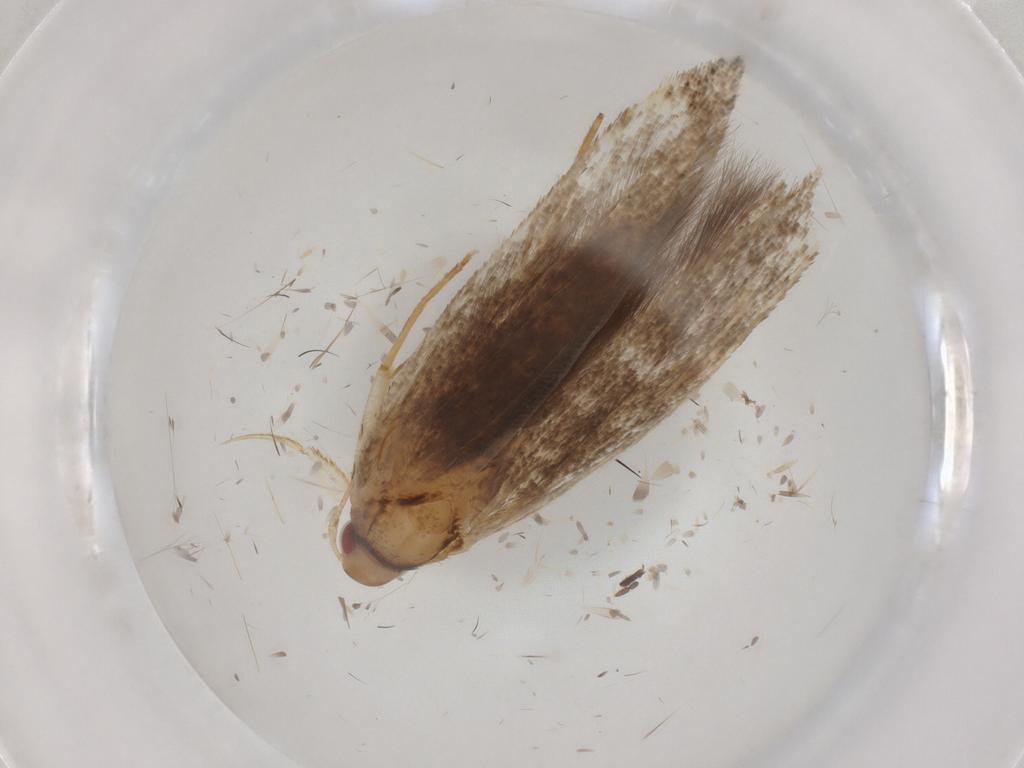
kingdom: Animalia
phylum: Arthropoda
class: Insecta
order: Lepidoptera
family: Cosmopterigidae
